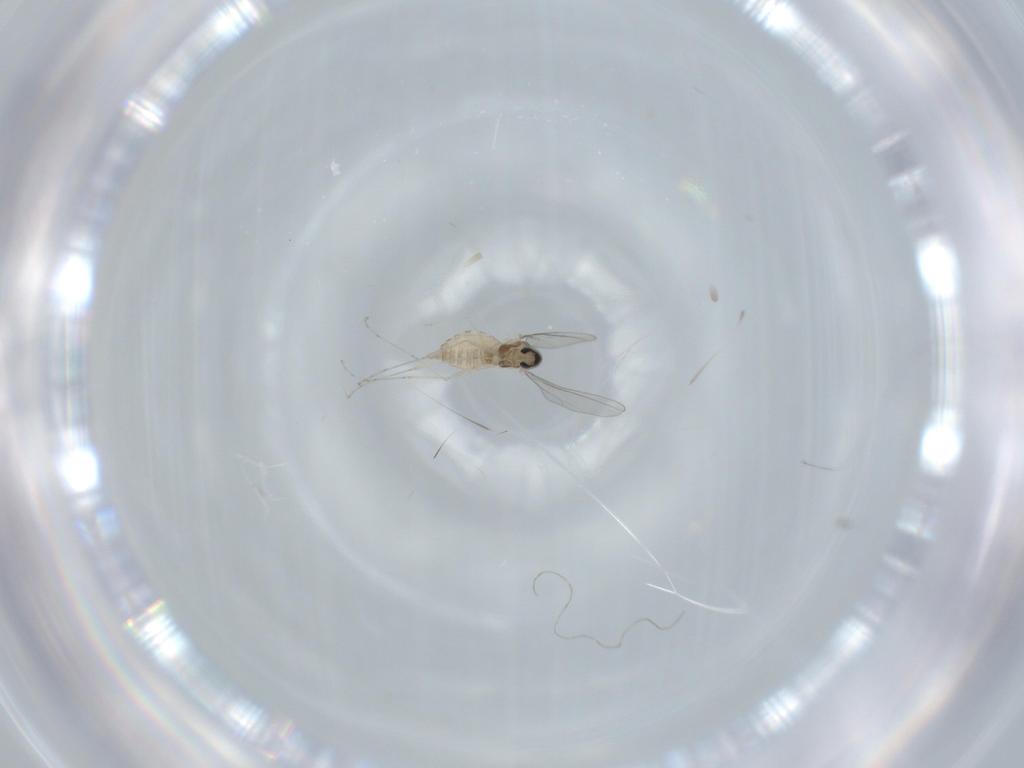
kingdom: Animalia
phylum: Arthropoda
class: Insecta
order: Diptera
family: Cecidomyiidae
